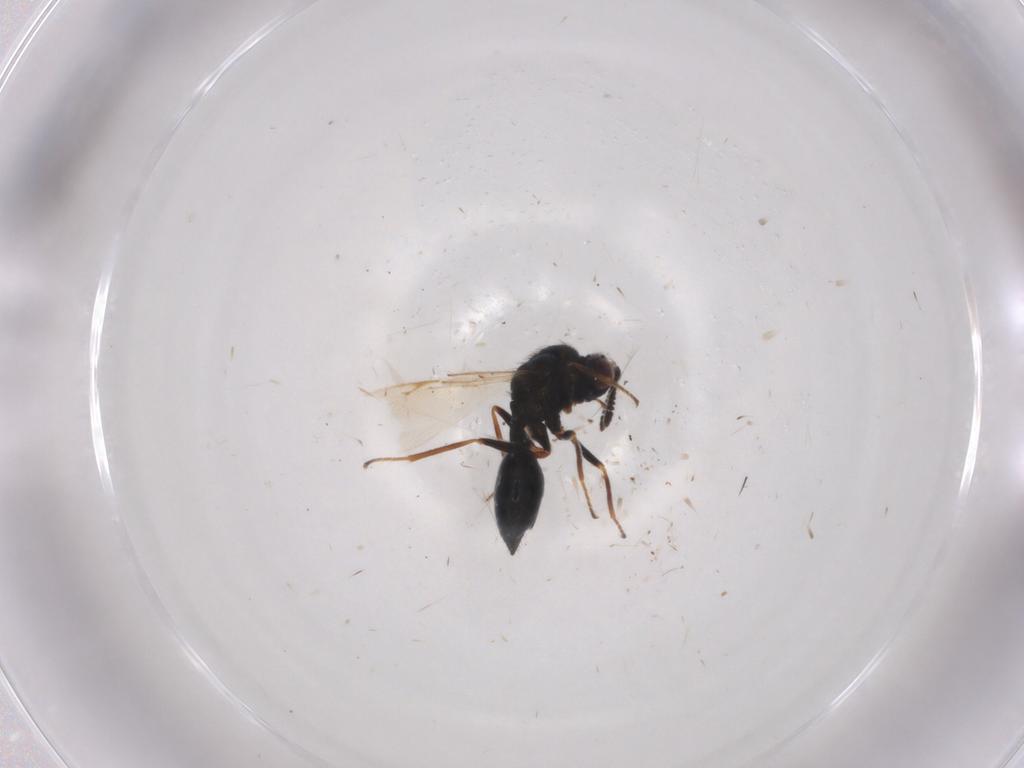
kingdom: Animalia
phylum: Arthropoda
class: Insecta
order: Hymenoptera
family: Chalcidoidea_incertae_sedis
